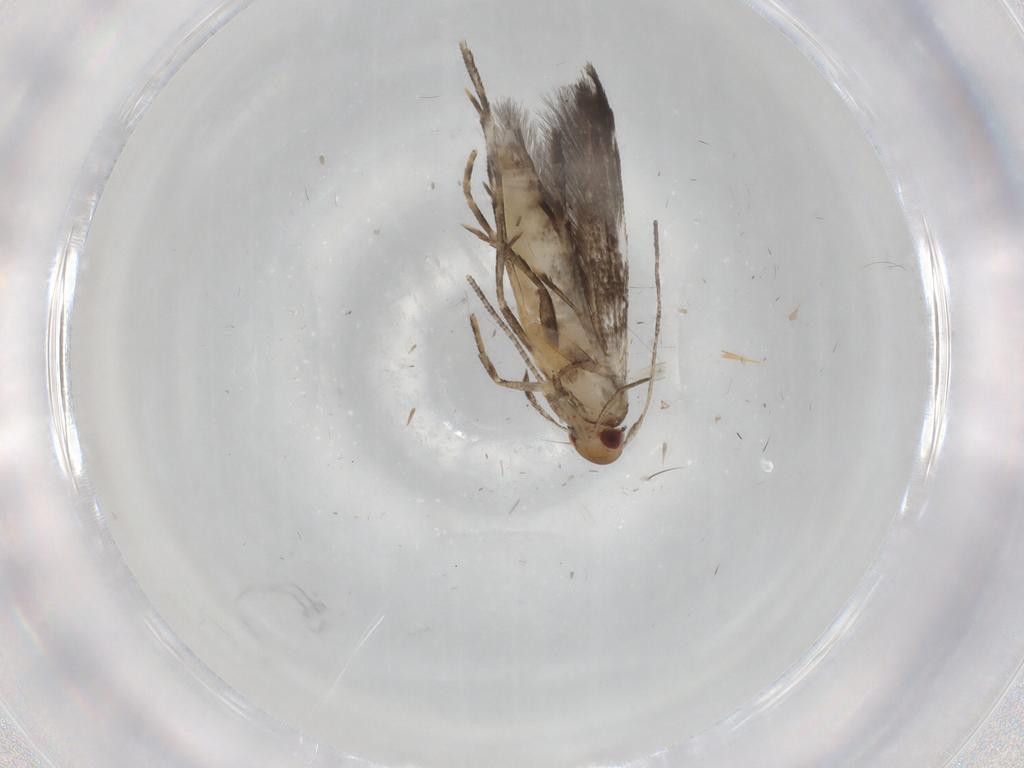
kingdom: Animalia
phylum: Arthropoda
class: Insecta
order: Lepidoptera
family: Momphidae
